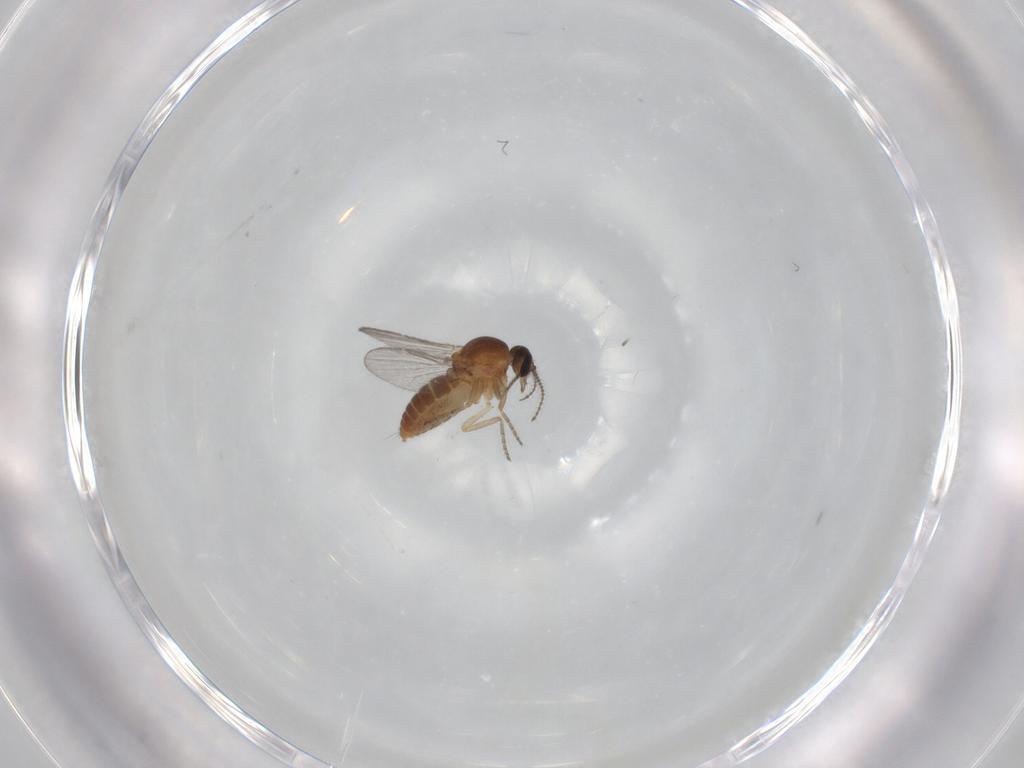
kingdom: Animalia
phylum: Arthropoda
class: Insecta
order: Diptera
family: Ceratopogonidae
